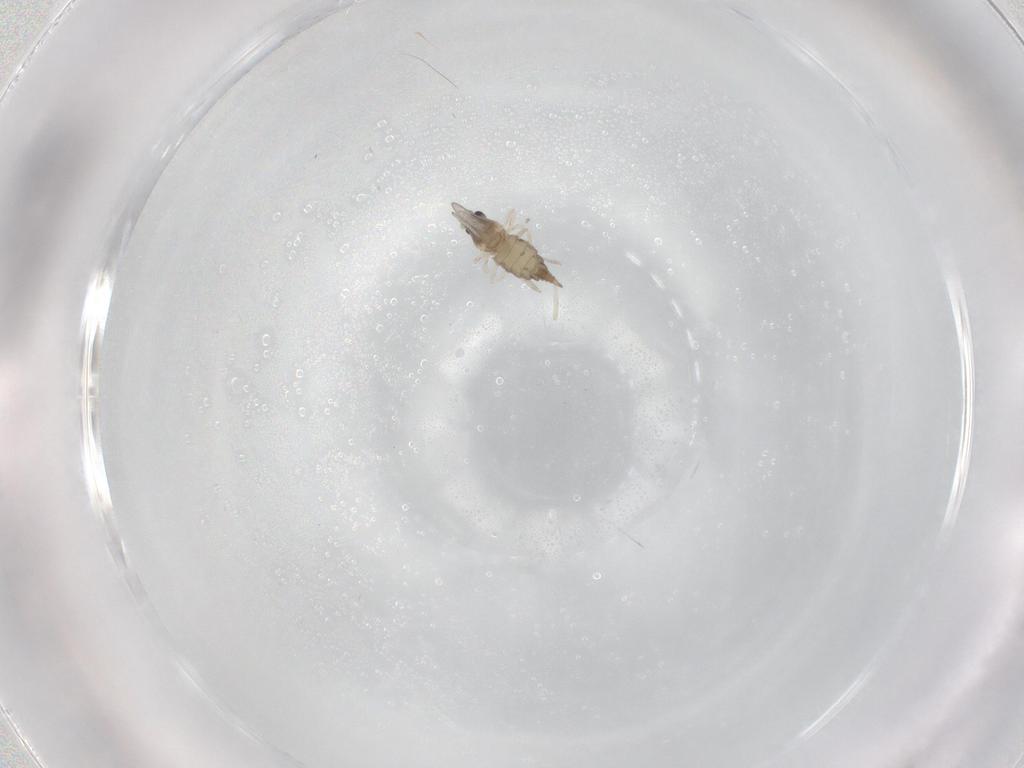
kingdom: Animalia
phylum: Arthropoda
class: Insecta
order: Diptera
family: Cecidomyiidae
